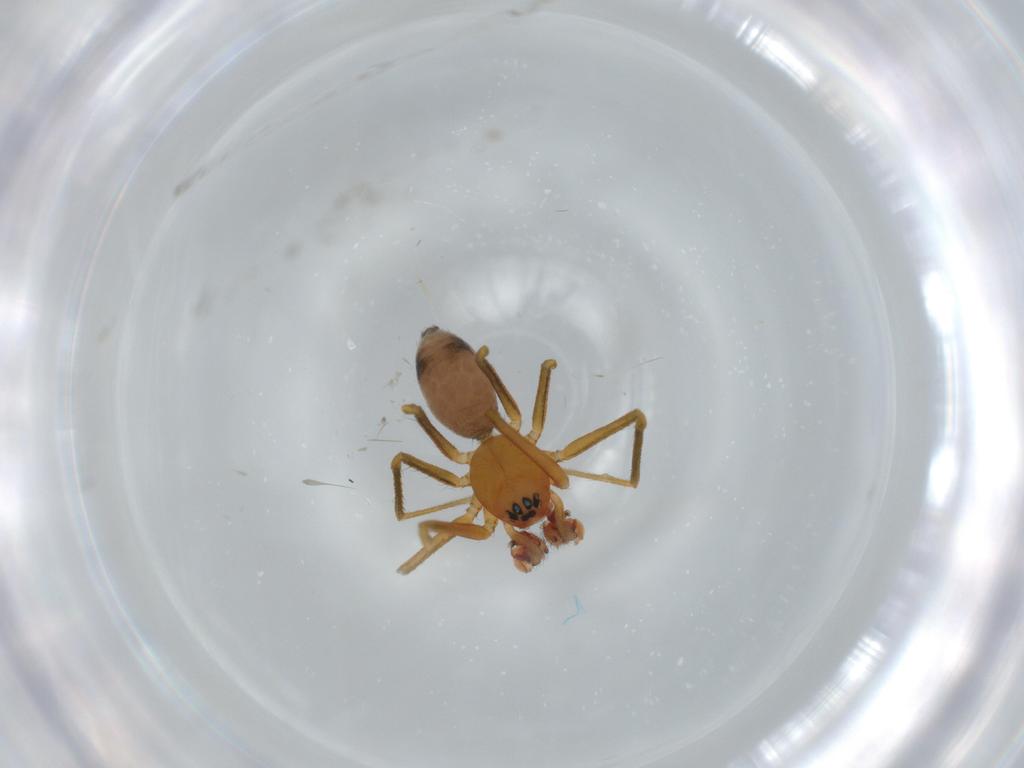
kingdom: Animalia
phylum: Arthropoda
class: Arachnida
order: Araneae
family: Linyphiidae
